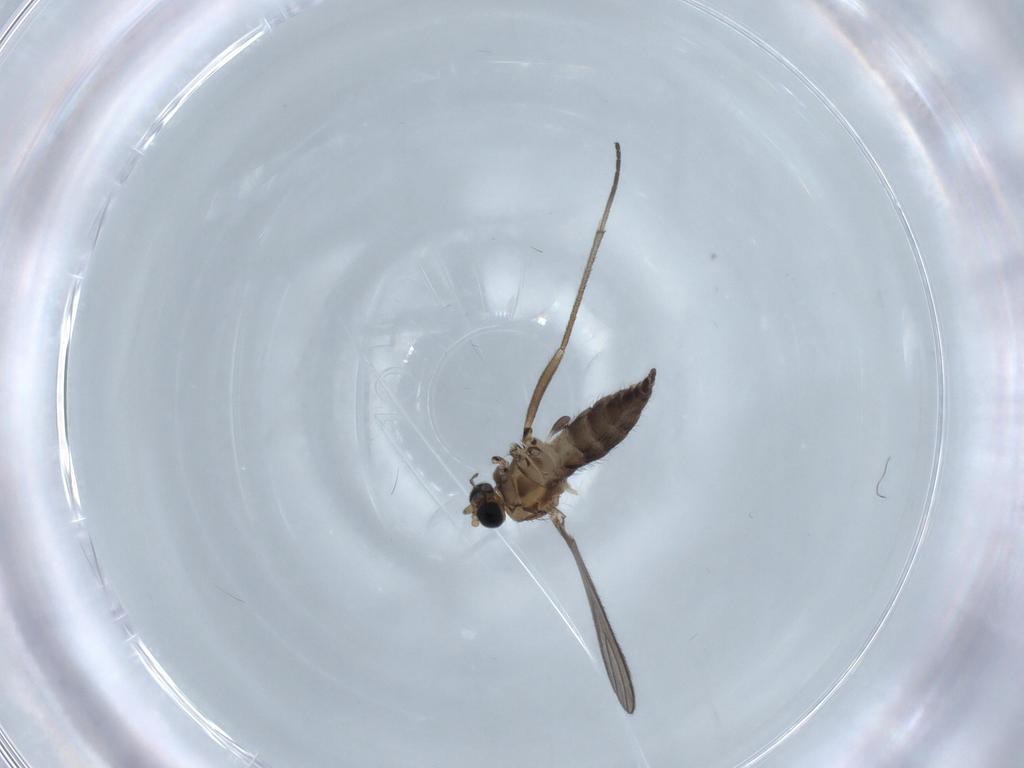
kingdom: Animalia
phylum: Arthropoda
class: Insecta
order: Diptera
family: Sciaridae
